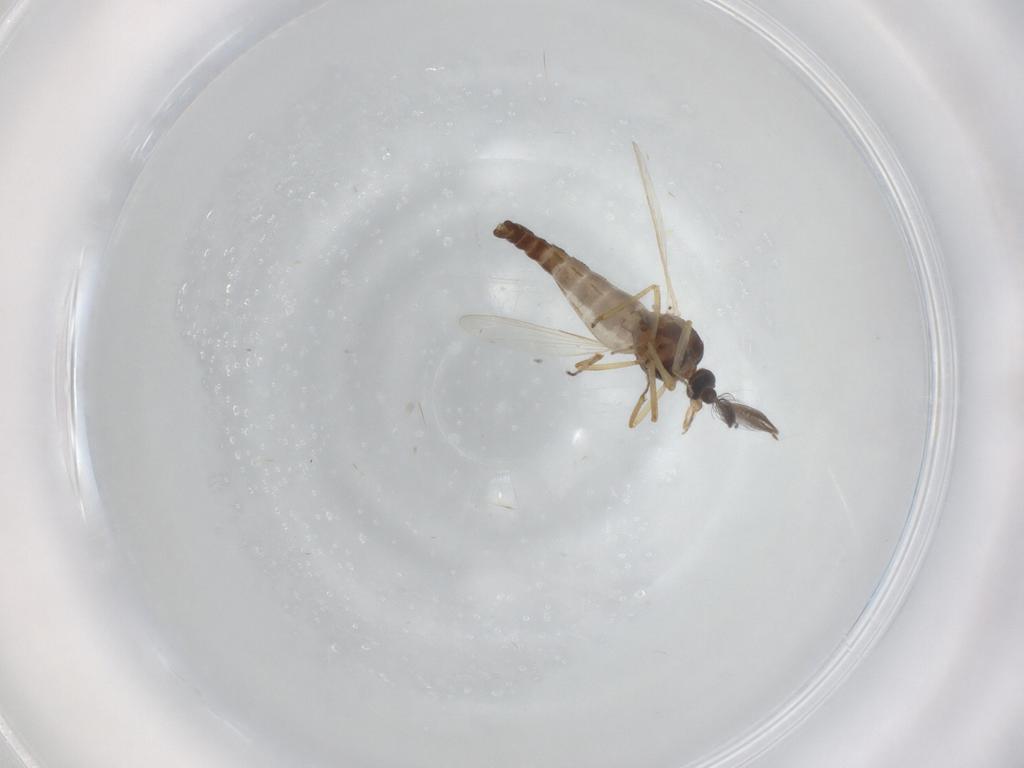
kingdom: Animalia
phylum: Arthropoda
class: Insecta
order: Diptera
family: Ceratopogonidae
